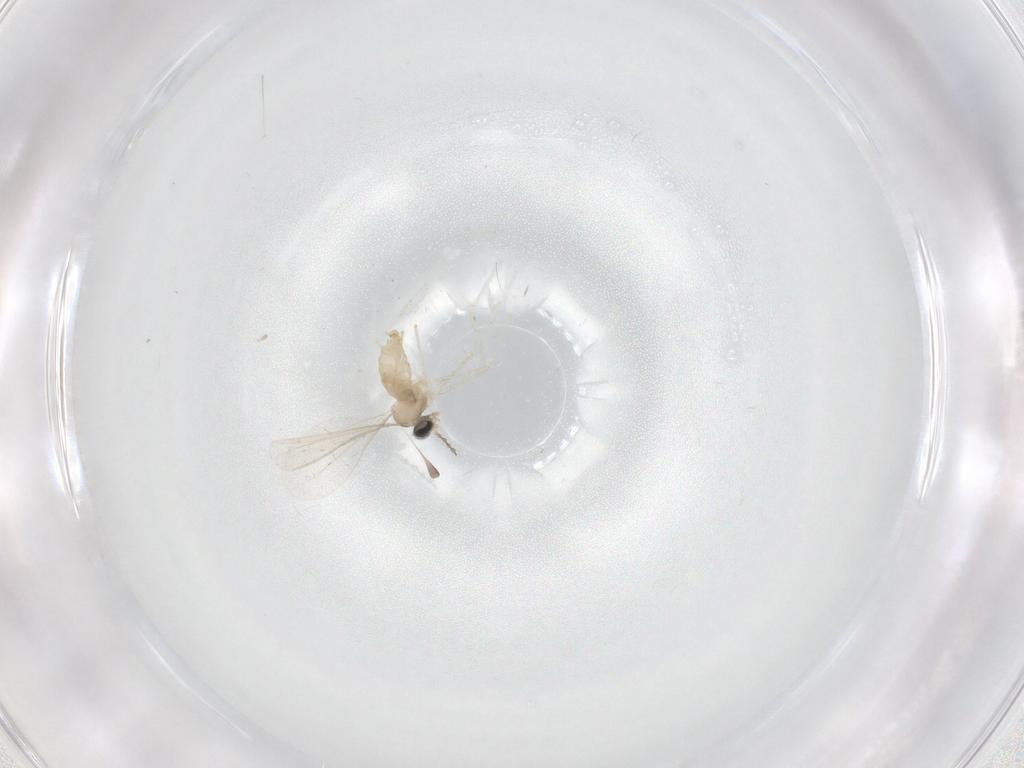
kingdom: Animalia
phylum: Arthropoda
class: Insecta
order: Diptera
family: Cecidomyiidae
